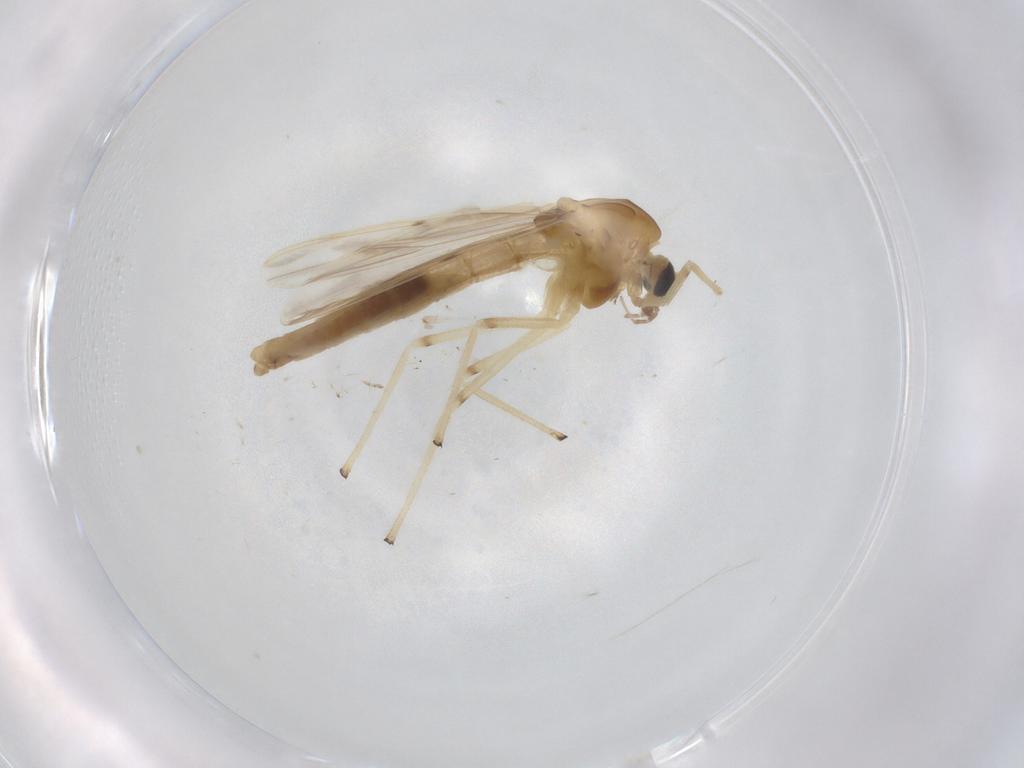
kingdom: Animalia
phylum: Arthropoda
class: Insecta
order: Diptera
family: Chironomidae
